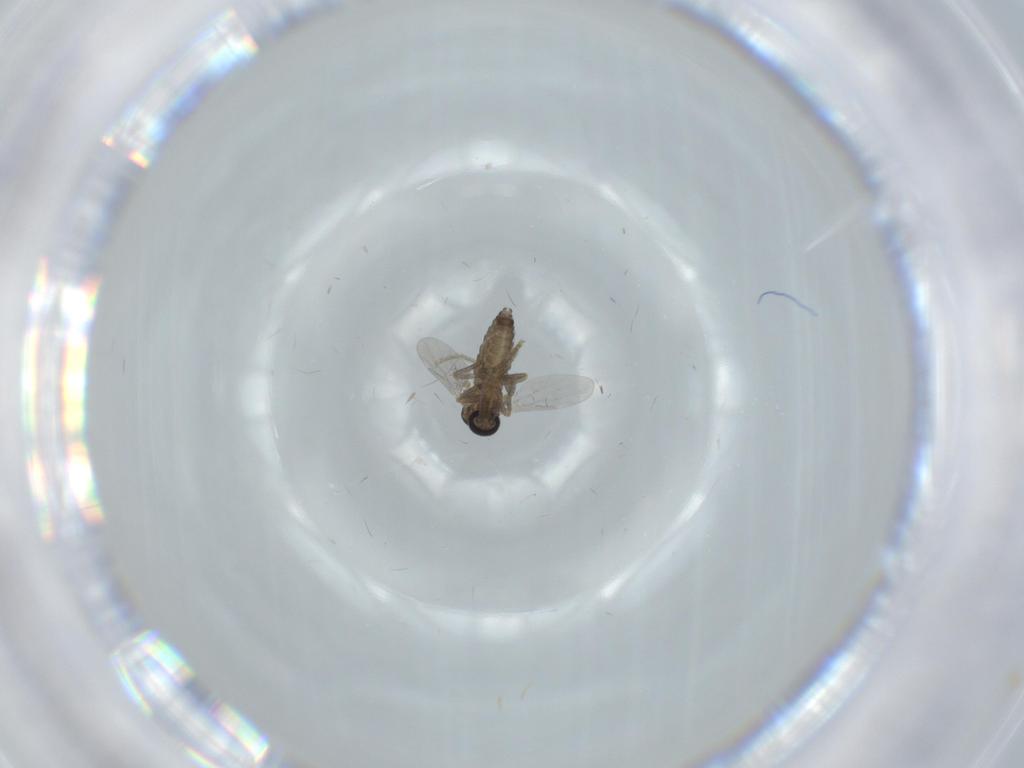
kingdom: Animalia
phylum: Arthropoda
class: Insecta
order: Diptera
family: Ceratopogonidae
